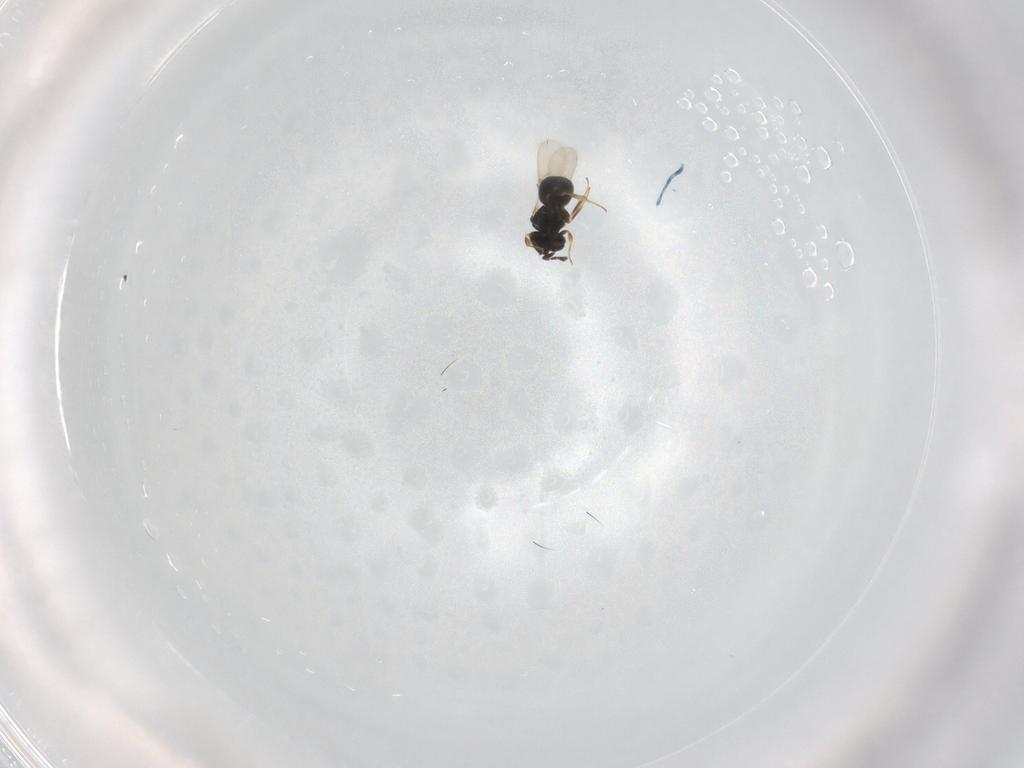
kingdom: Animalia
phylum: Arthropoda
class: Insecta
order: Hymenoptera
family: Scelionidae
